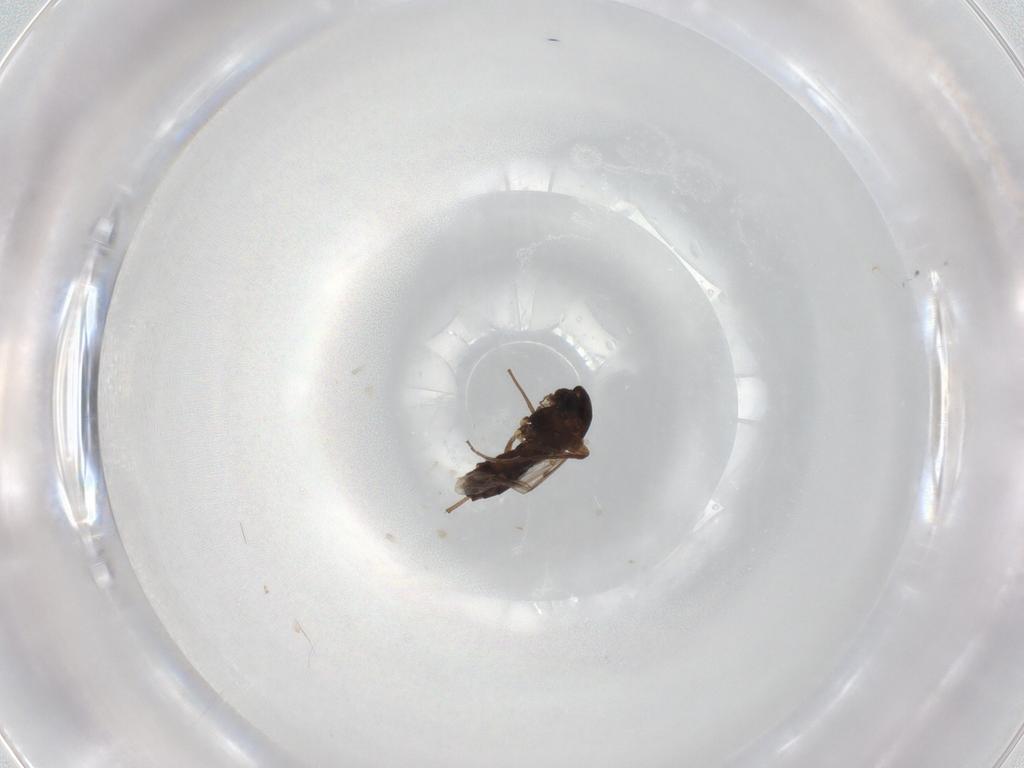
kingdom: Animalia
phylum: Arthropoda
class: Insecta
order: Diptera
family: Chironomidae
